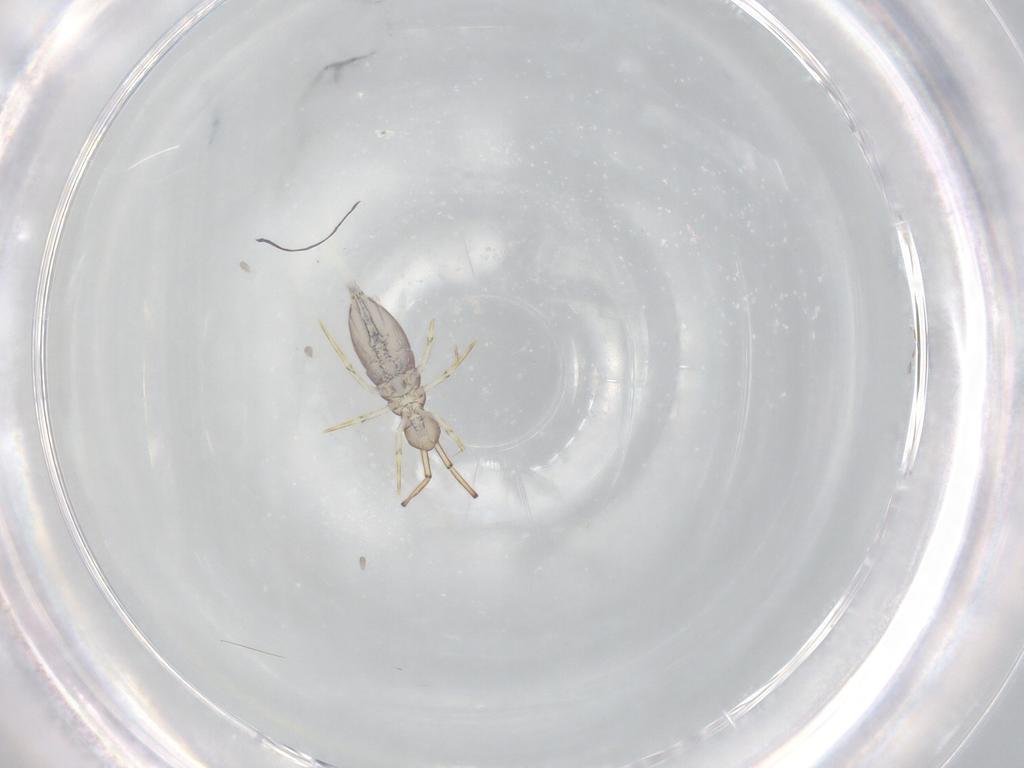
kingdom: Animalia
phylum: Arthropoda
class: Collembola
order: Entomobryomorpha
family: Paronellidae
